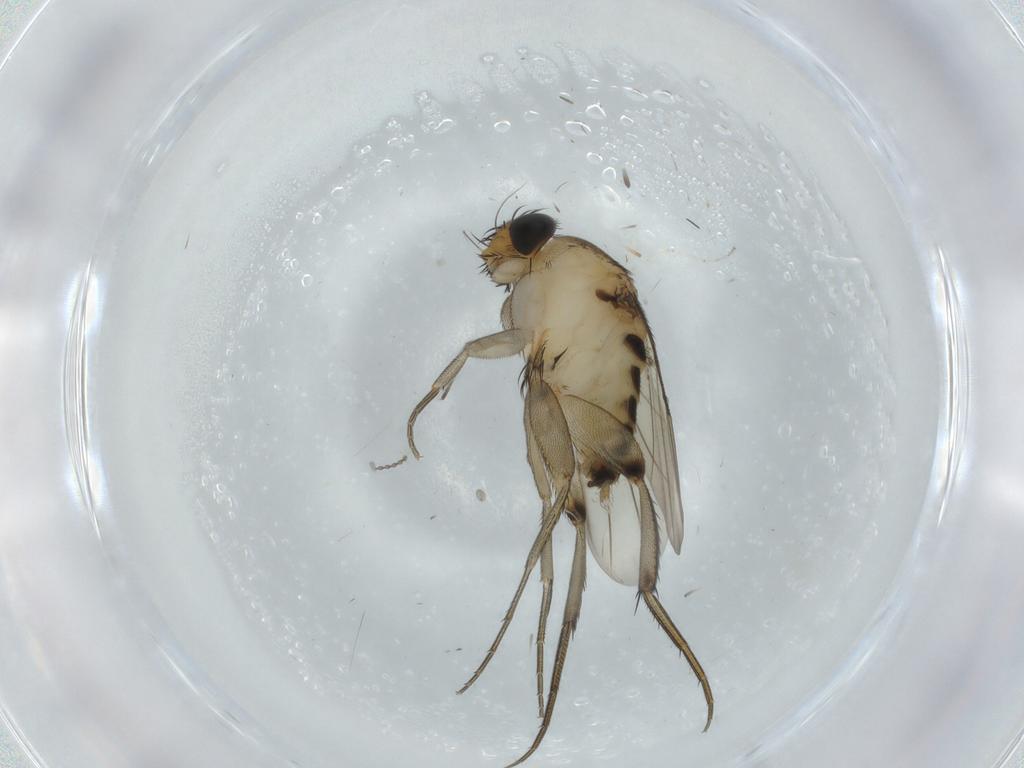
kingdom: Animalia
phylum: Arthropoda
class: Insecta
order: Diptera
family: Cecidomyiidae
